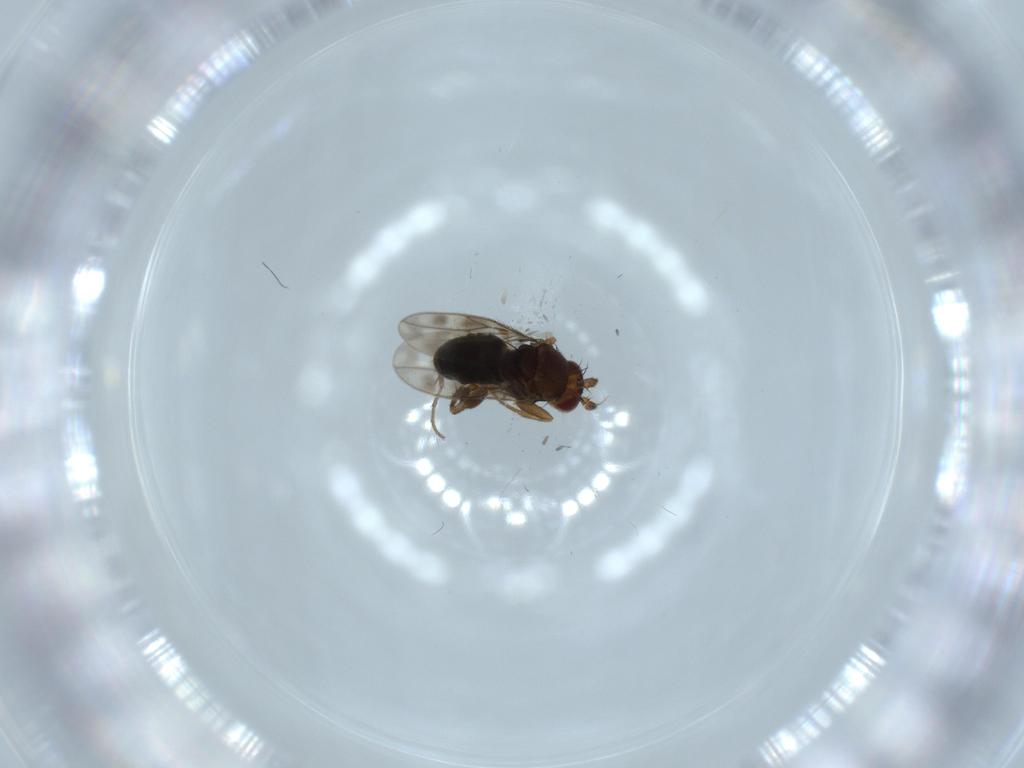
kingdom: Animalia
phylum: Arthropoda
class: Insecta
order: Diptera
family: Sphaeroceridae
